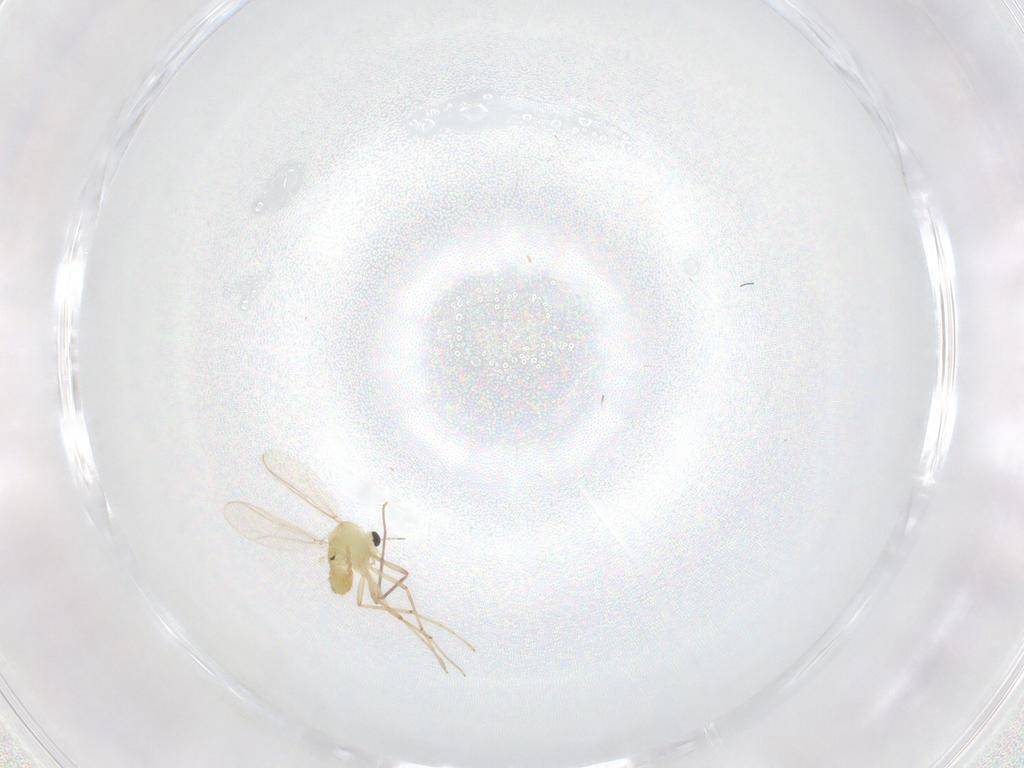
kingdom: Animalia
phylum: Arthropoda
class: Insecta
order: Diptera
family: Chironomidae
